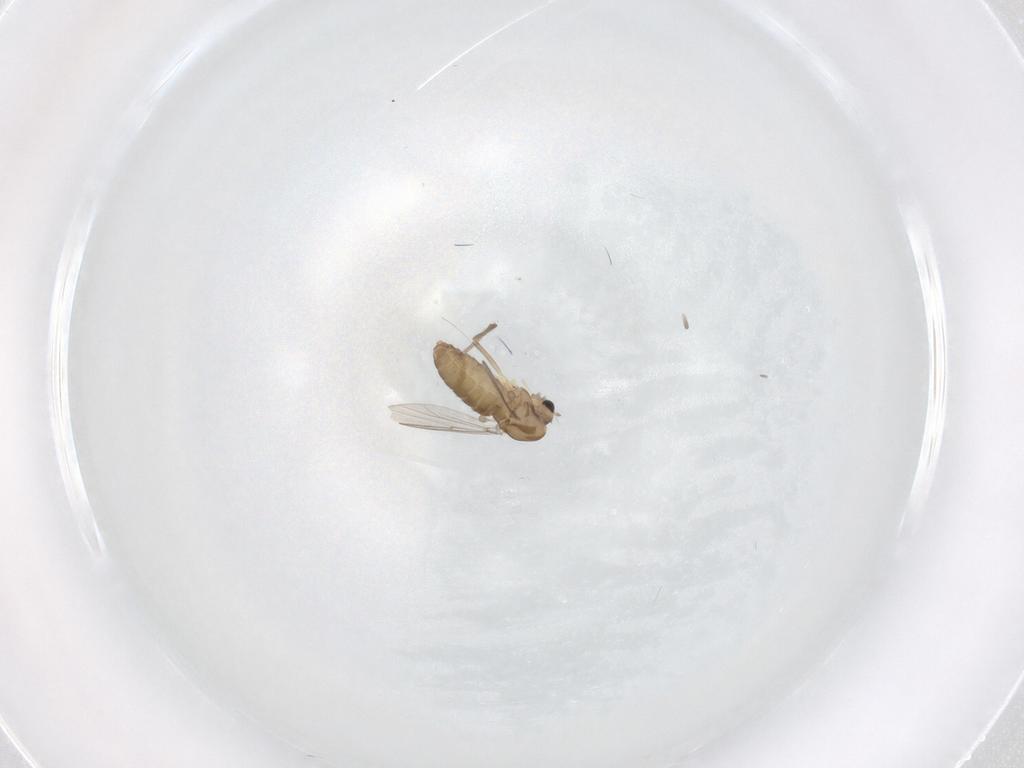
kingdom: Animalia
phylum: Arthropoda
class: Insecta
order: Diptera
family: Chironomidae
